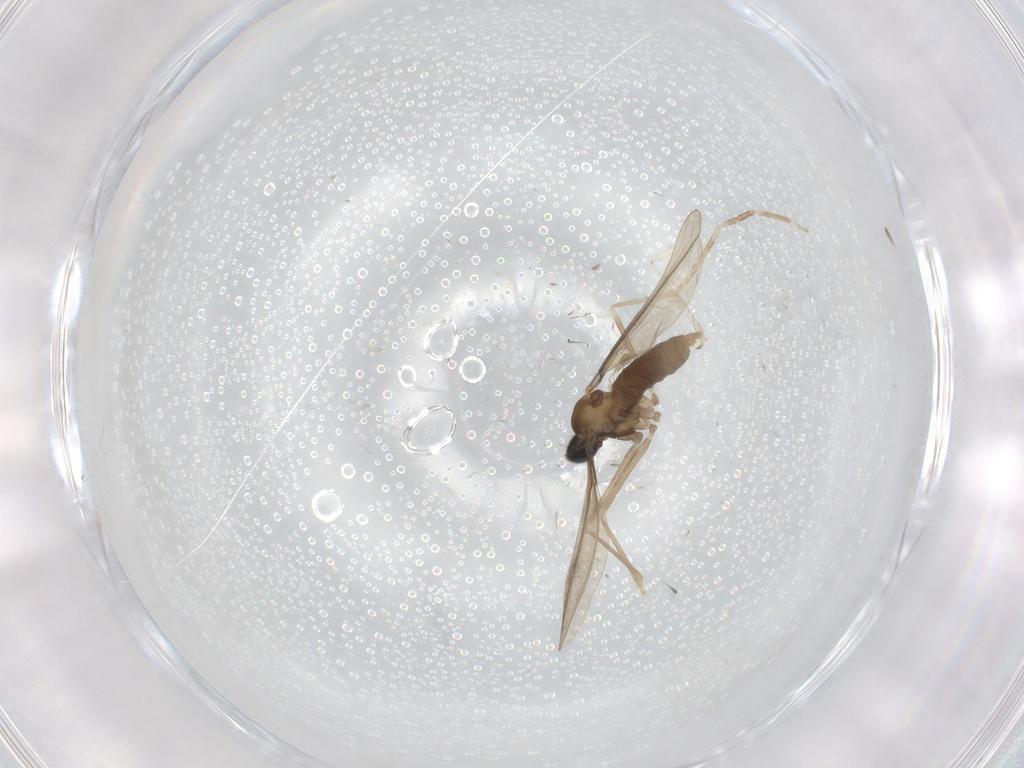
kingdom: Animalia
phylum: Arthropoda
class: Insecta
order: Diptera
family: Cecidomyiidae
